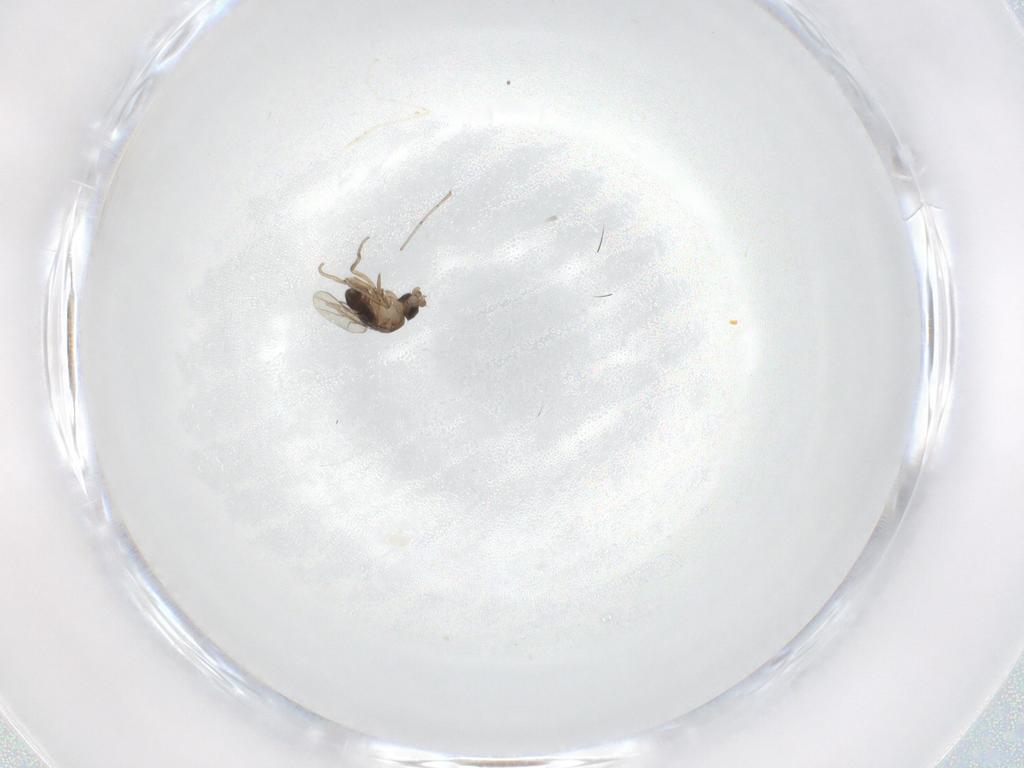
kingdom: Animalia
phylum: Arthropoda
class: Insecta
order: Diptera
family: Phoridae
